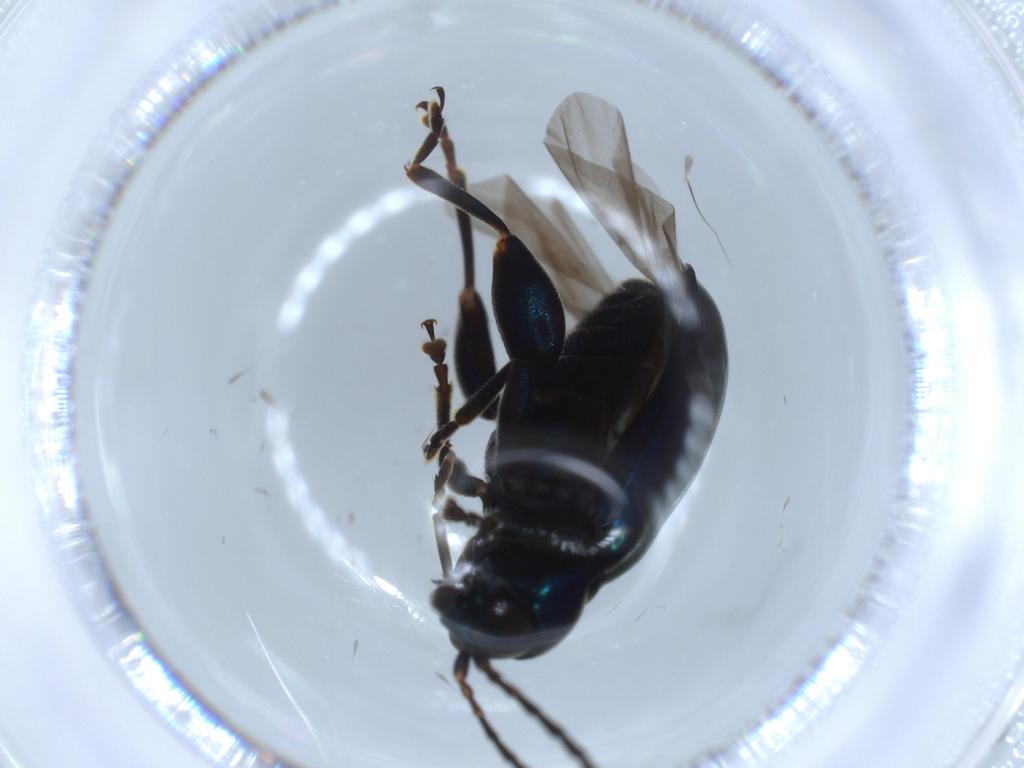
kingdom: Animalia
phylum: Arthropoda
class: Insecta
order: Coleoptera
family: Chrysomelidae
